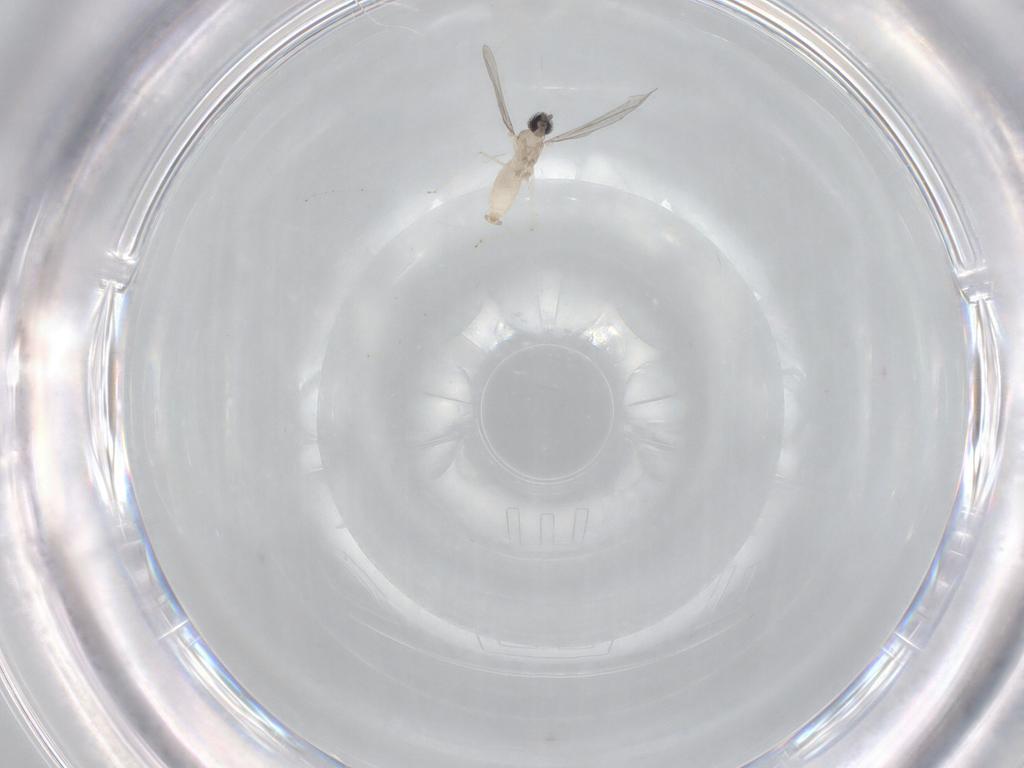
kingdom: Animalia
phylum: Arthropoda
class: Insecta
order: Diptera
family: Cecidomyiidae
